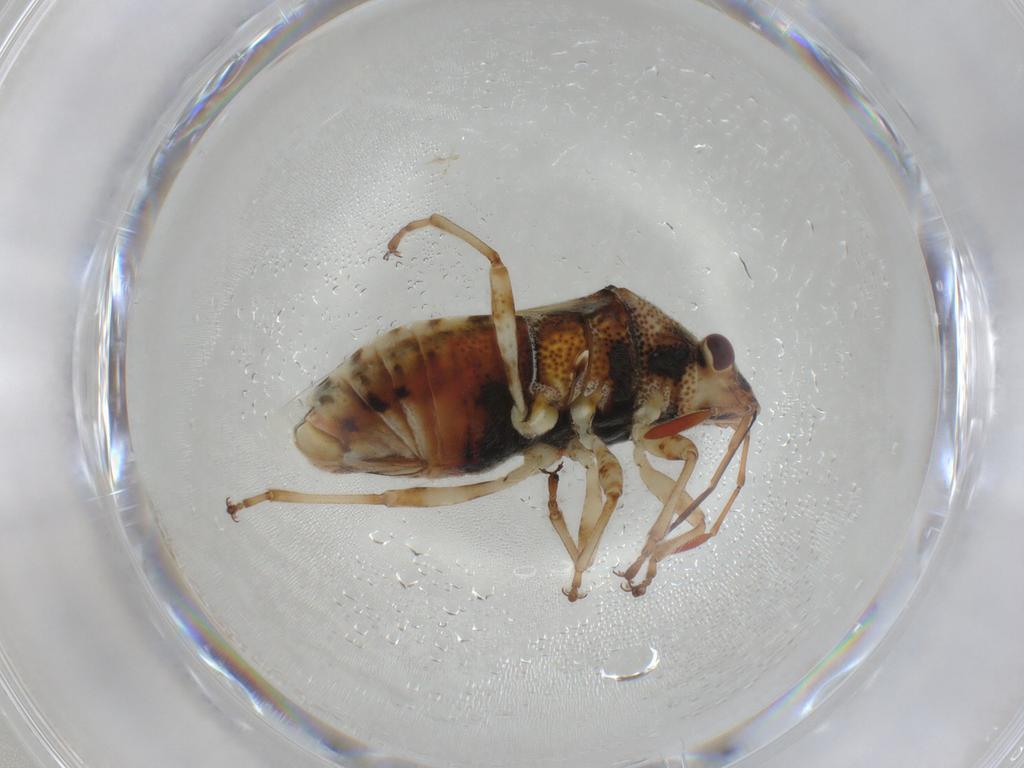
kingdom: Animalia
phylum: Arthropoda
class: Insecta
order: Hemiptera
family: Lygaeidae
